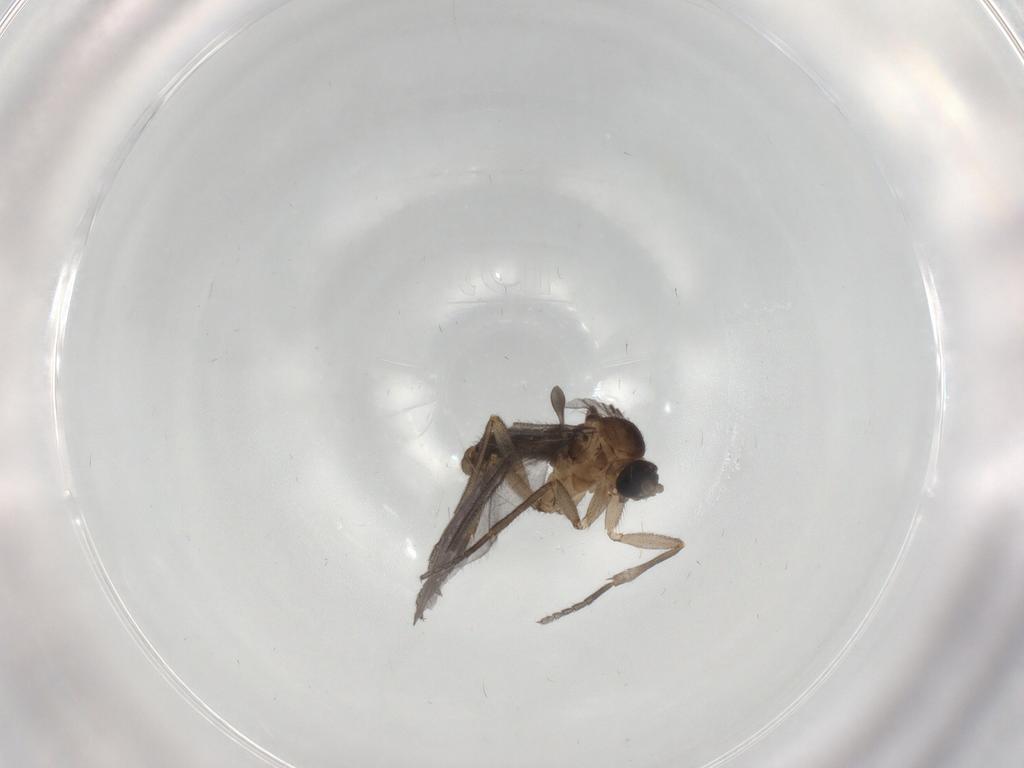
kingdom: Animalia
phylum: Arthropoda
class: Insecta
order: Diptera
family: Sciaridae
